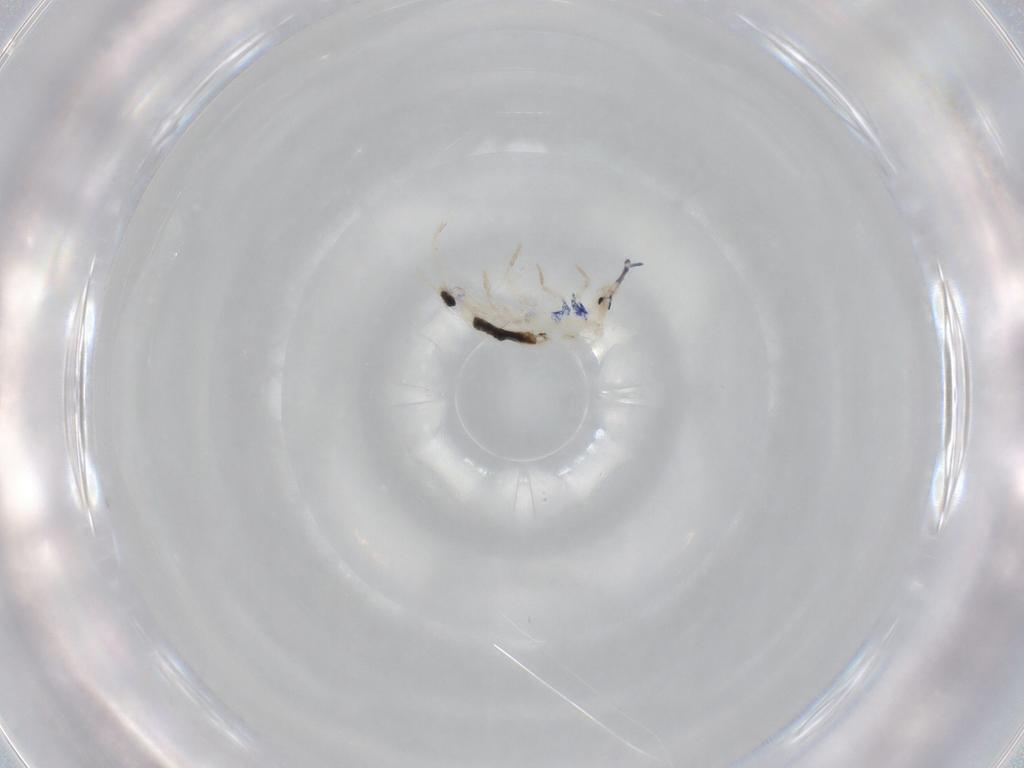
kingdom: Animalia
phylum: Arthropoda
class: Collembola
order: Entomobryomorpha
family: Entomobryidae
